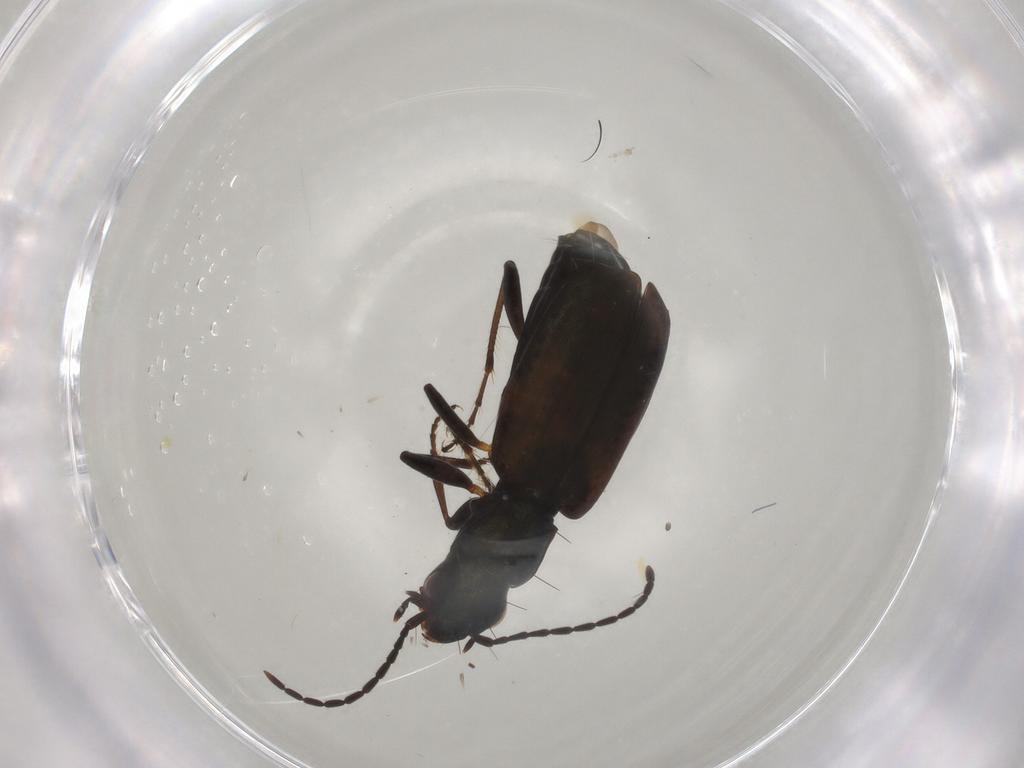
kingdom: Animalia
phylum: Arthropoda
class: Insecta
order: Coleoptera
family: Carabidae
